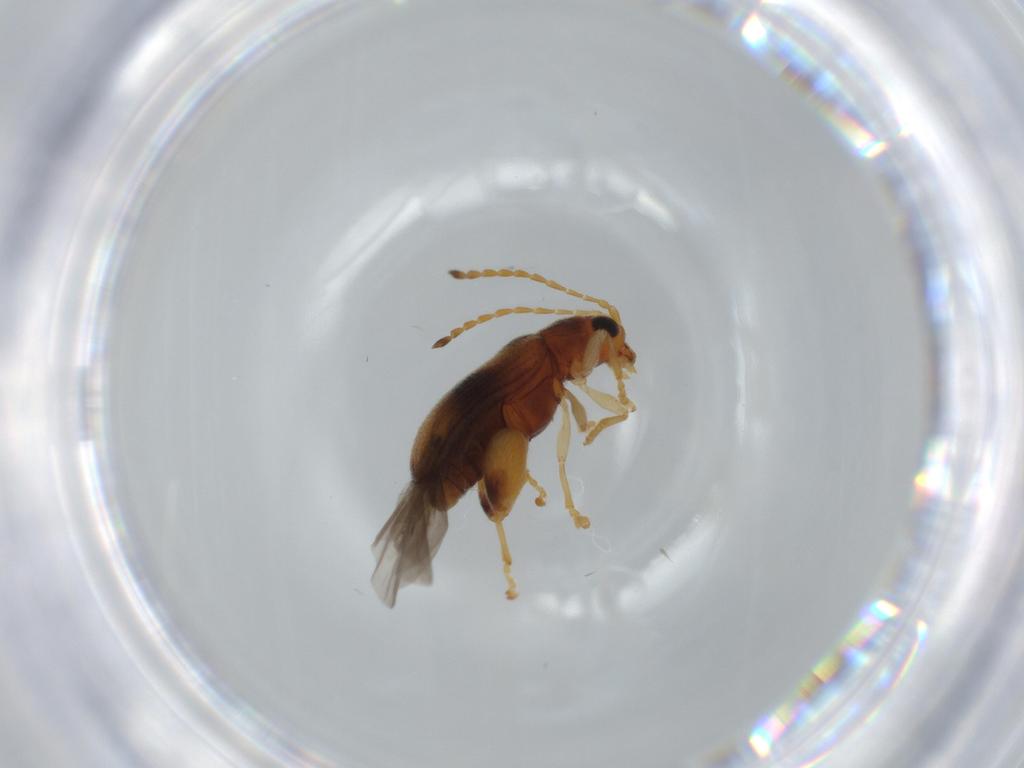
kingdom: Animalia
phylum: Arthropoda
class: Insecta
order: Coleoptera
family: Chrysomelidae
